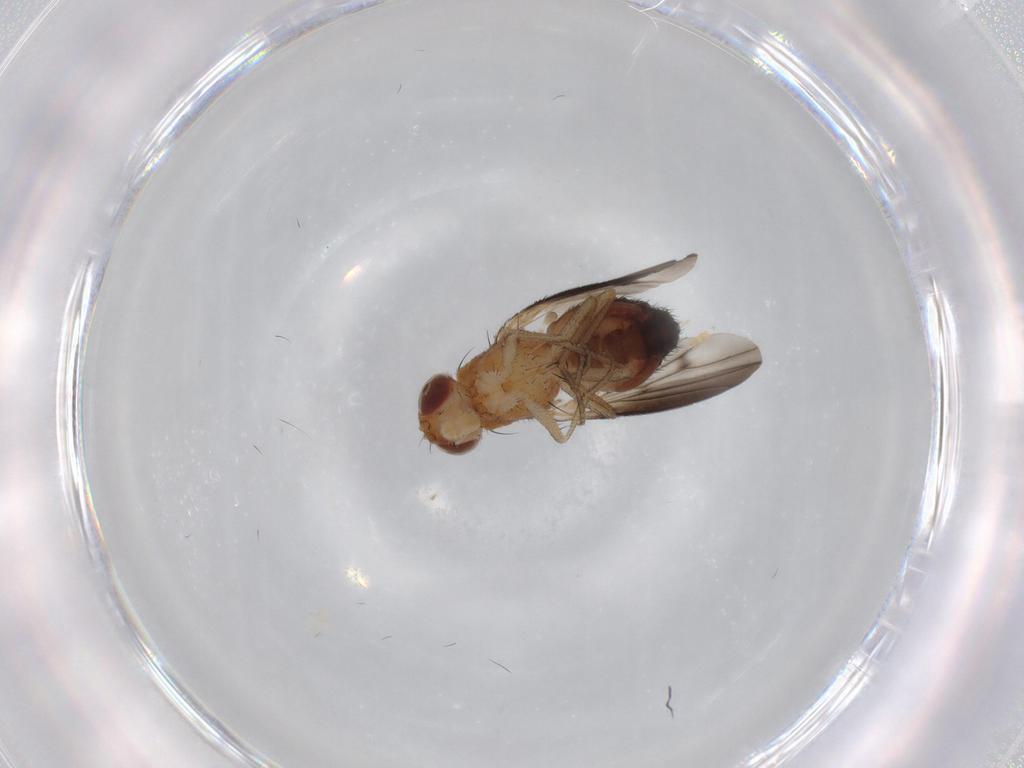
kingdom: Animalia
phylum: Arthropoda
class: Insecta
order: Diptera
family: Heleomyzidae
